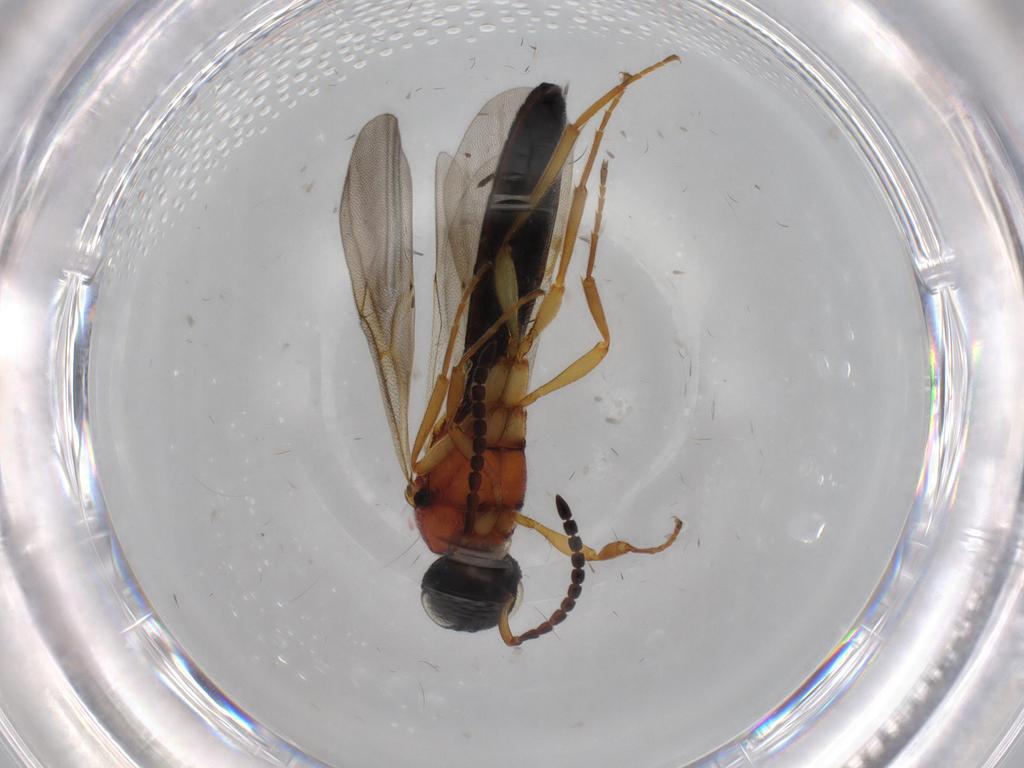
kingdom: Animalia
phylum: Arthropoda
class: Insecta
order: Hymenoptera
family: Scelionidae
